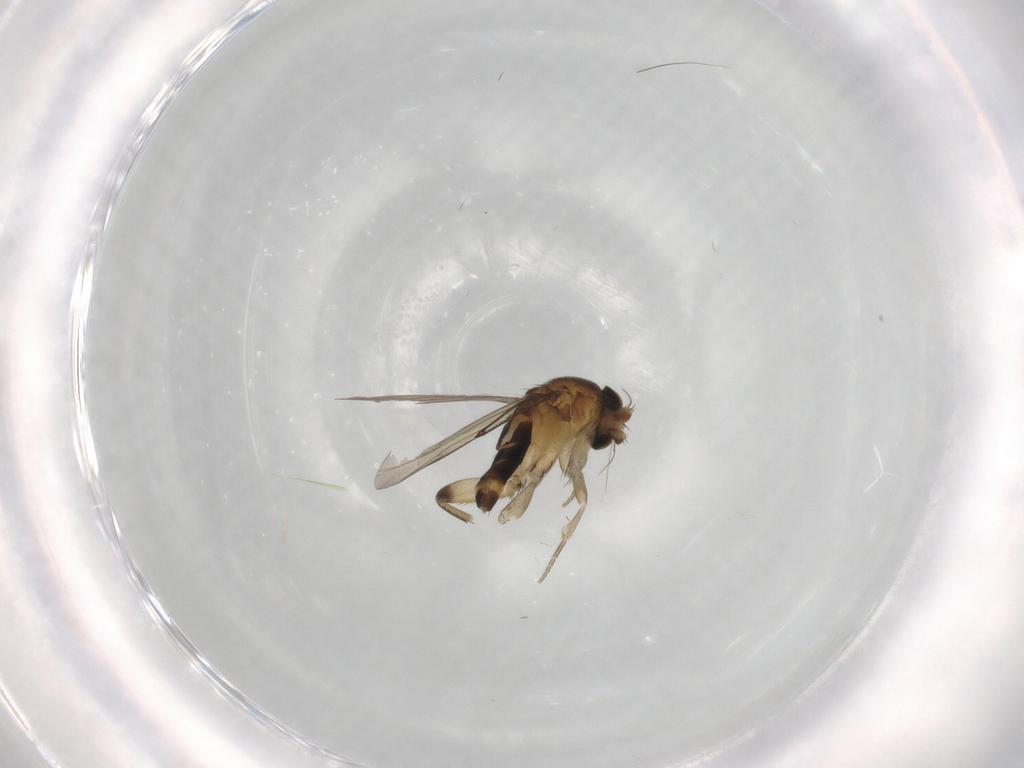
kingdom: Animalia
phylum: Arthropoda
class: Insecta
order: Diptera
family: Phoridae
